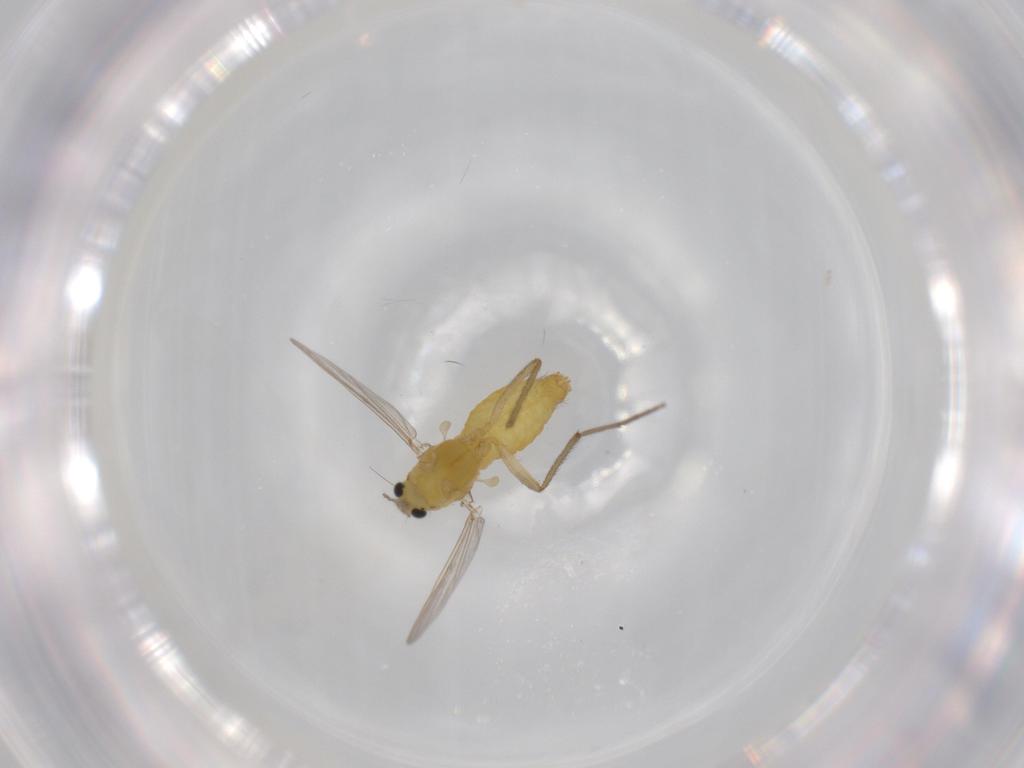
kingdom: Animalia
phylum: Arthropoda
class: Insecta
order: Diptera
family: Chironomidae
